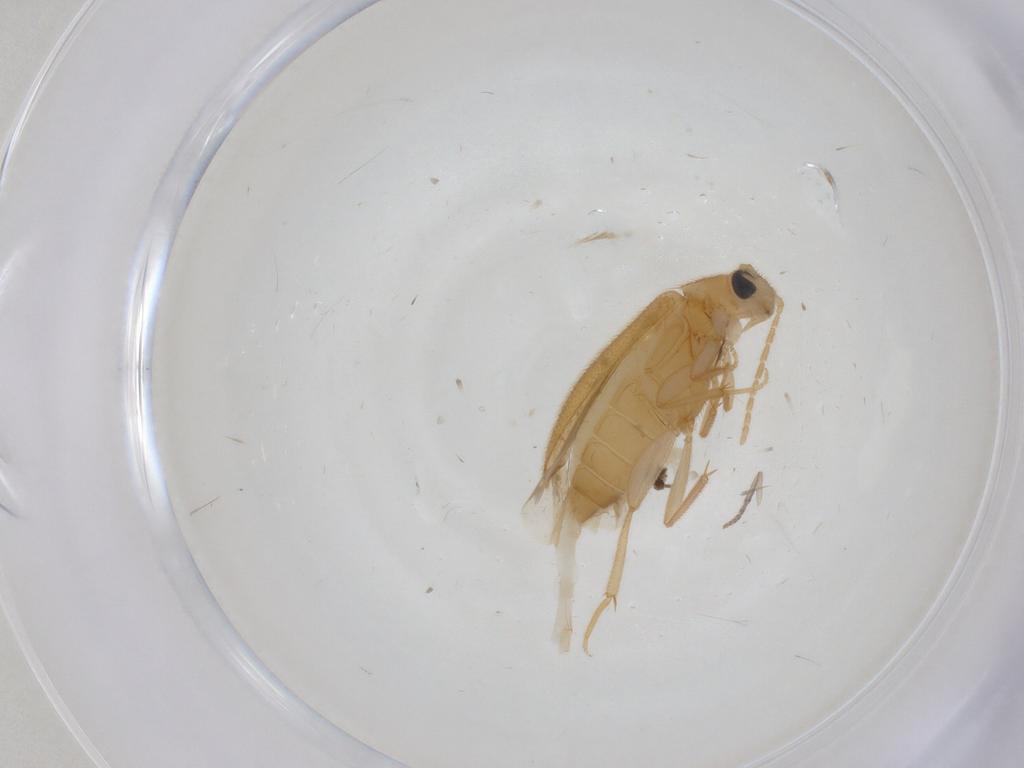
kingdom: Animalia
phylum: Arthropoda
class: Insecta
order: Coleoptera
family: Scraptiidae
